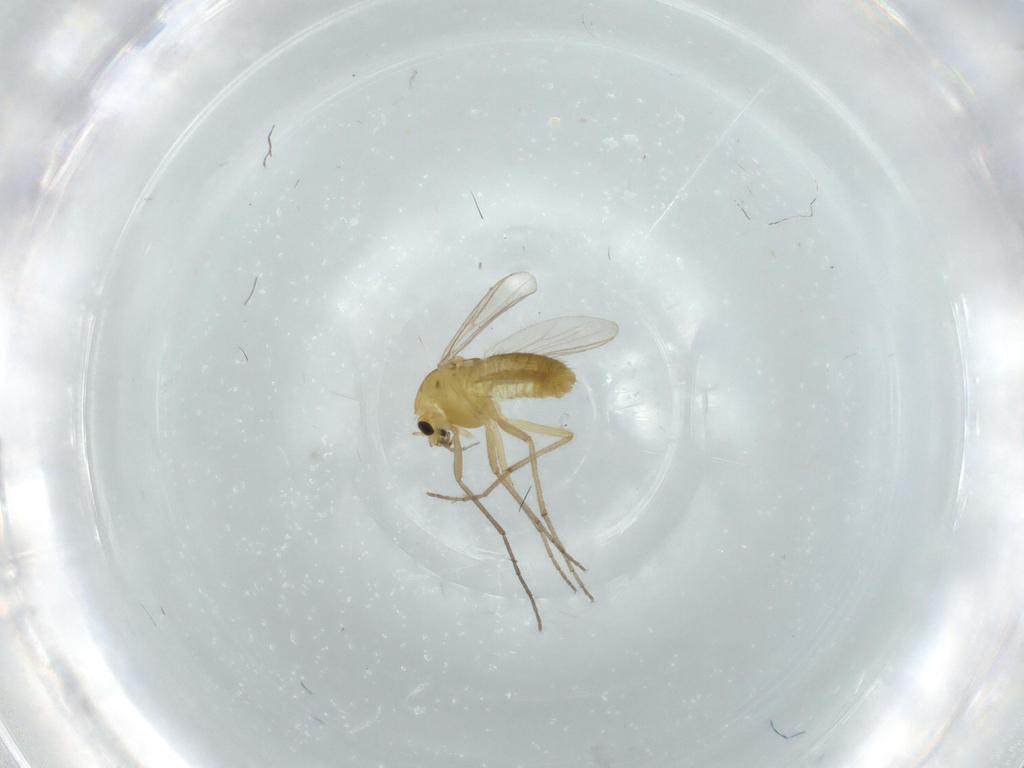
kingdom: Animalia
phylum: Arthropoda
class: Insecta
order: Diptera
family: Chironomidae
